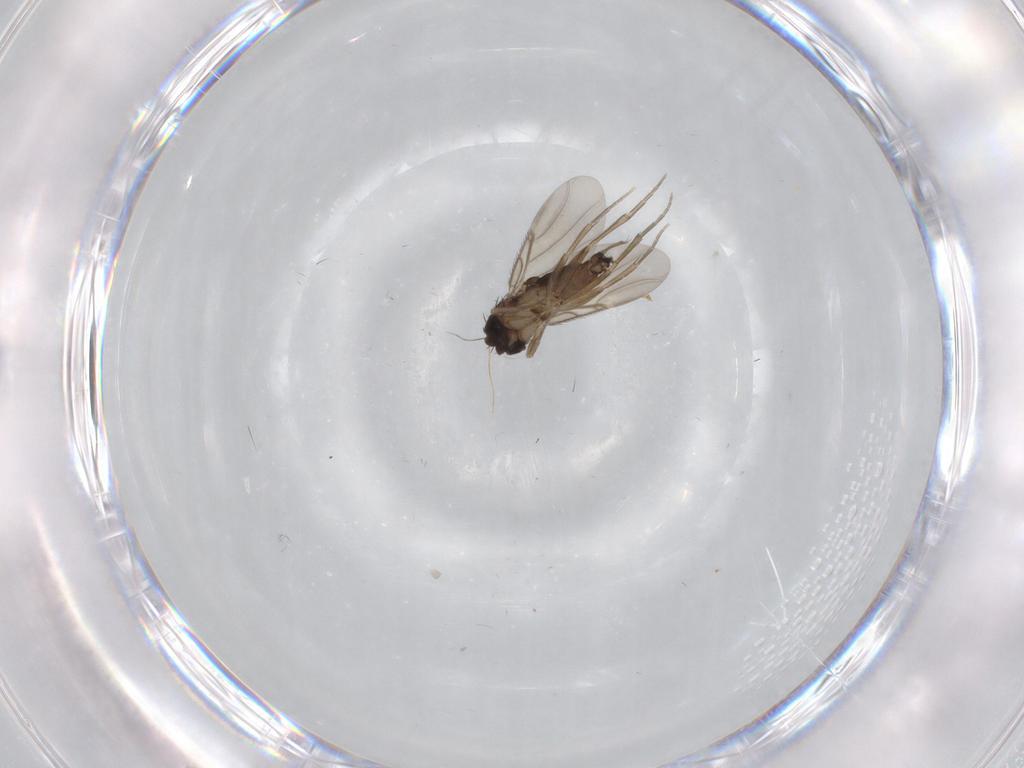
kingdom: Animalia
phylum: Arthropoda
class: Insecta
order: Diptera
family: Phoridae
